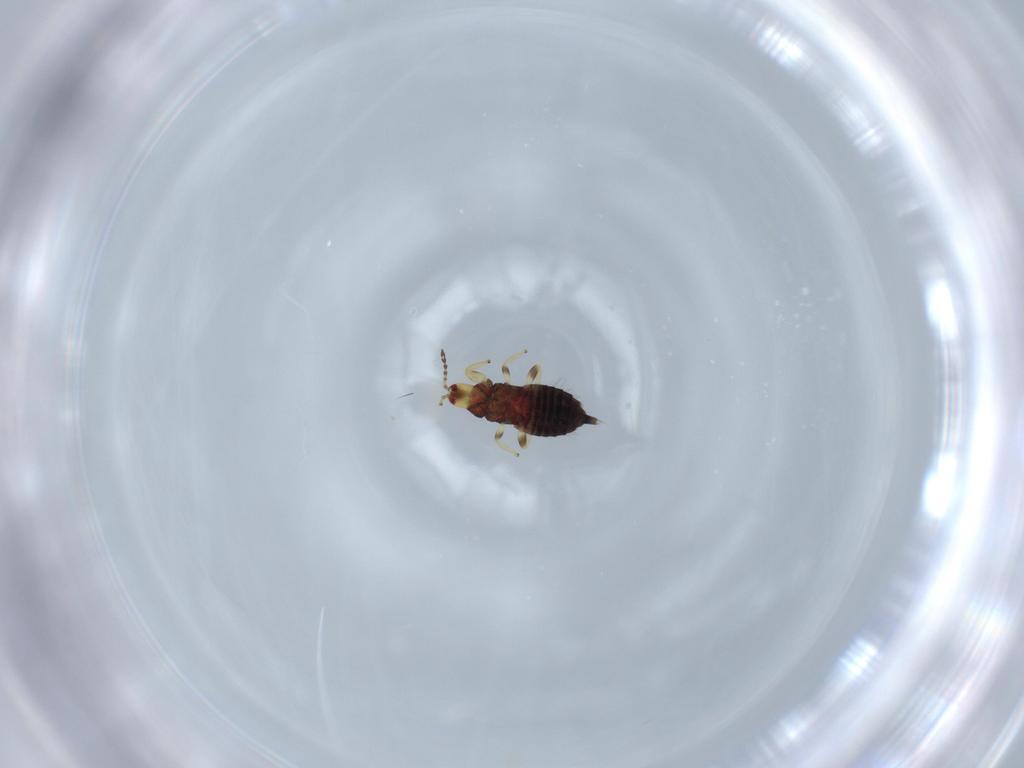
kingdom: Animalia
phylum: Arthropoda
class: Insecta
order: Thysanoptera
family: Phlaeothripidae
